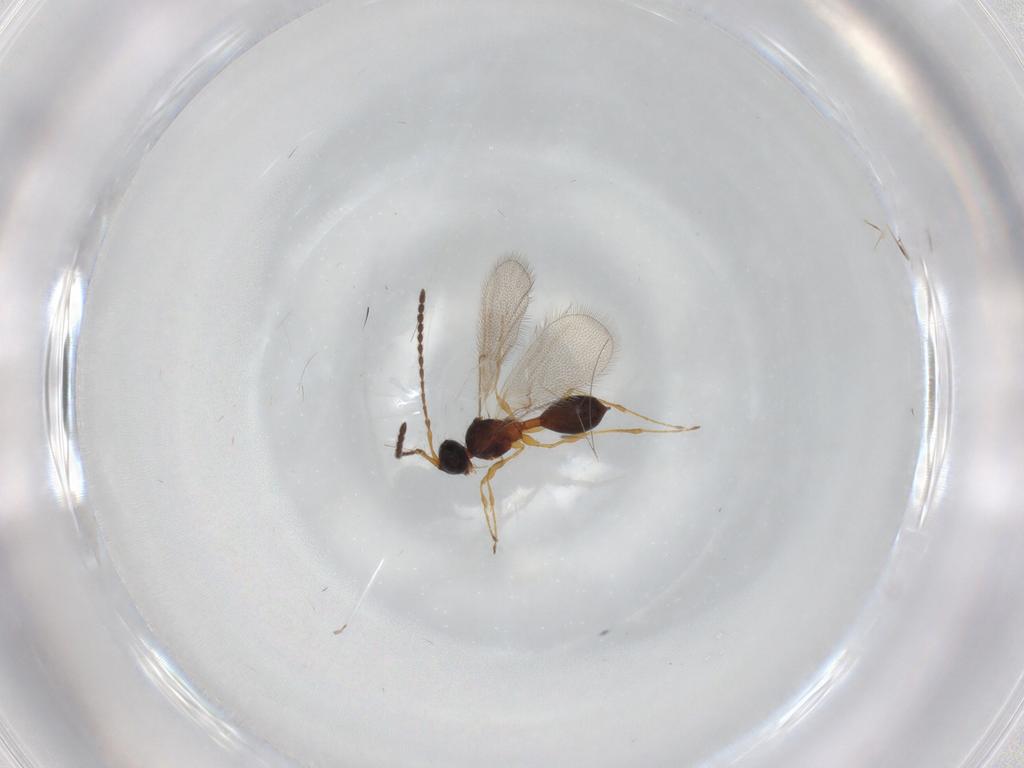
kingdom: Animalia
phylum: Arthropoda
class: Insecta
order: Hymenoptera
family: Diapriidae
